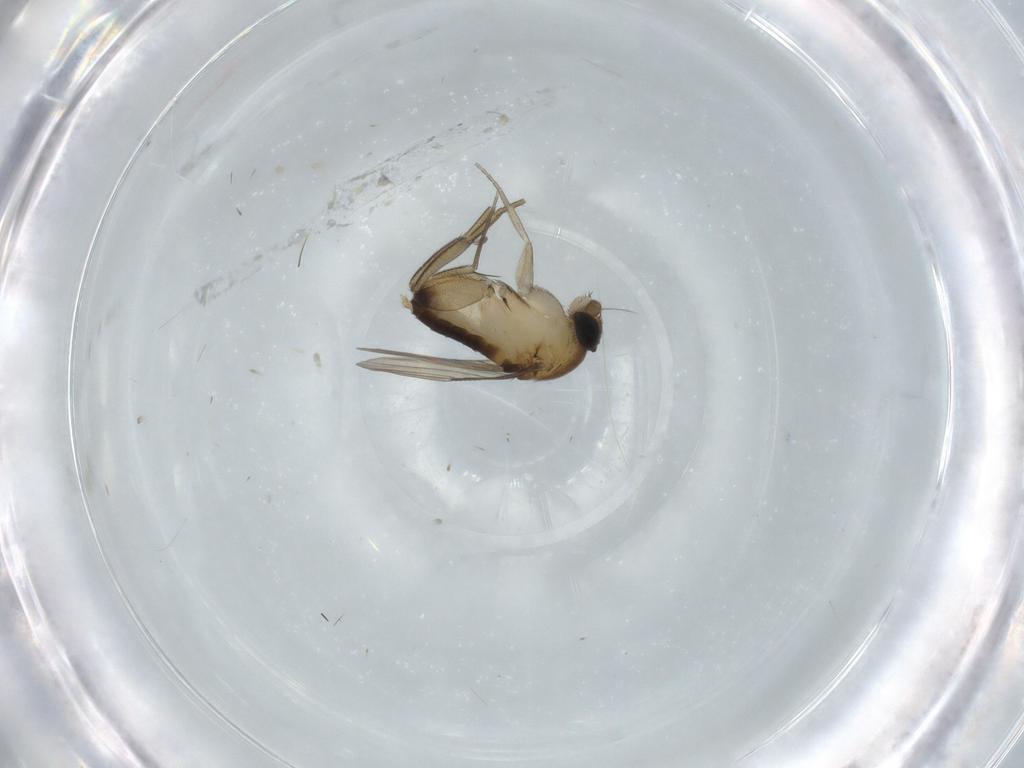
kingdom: Animalia
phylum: Arthropoda
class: Insecta
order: Diptera
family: Phoridae
